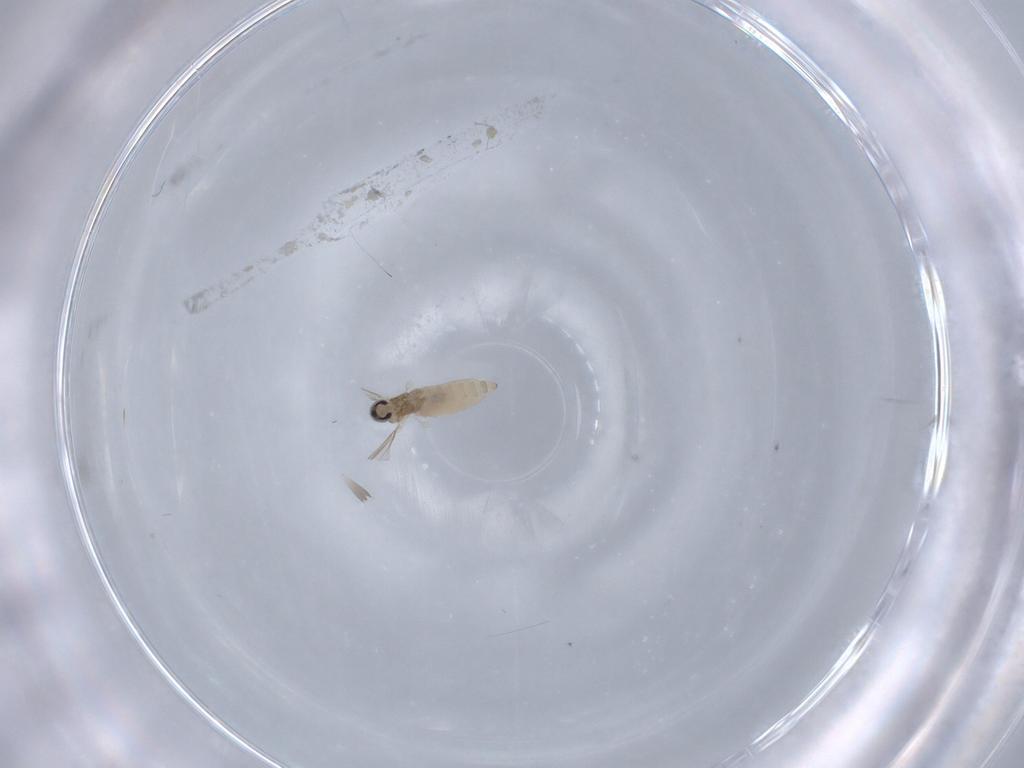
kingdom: Animalia
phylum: Arthropoda
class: Insecta
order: Diptera
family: Cecidomyiidae
